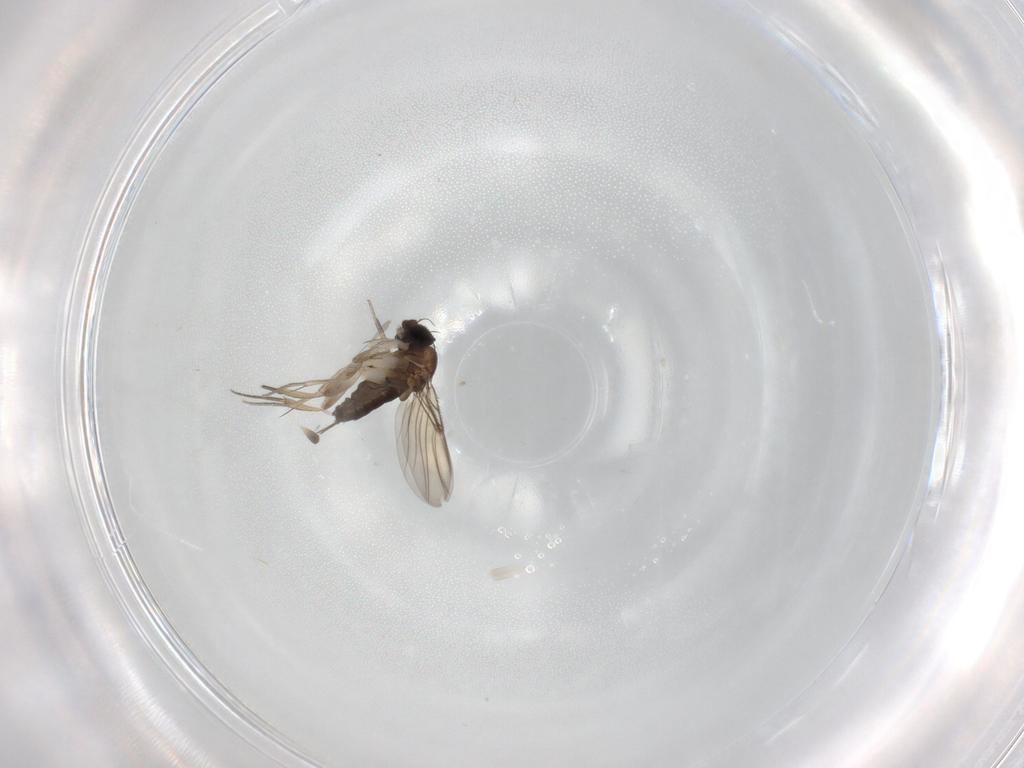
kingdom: Animalia
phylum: Arthropoda
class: Insecta
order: Diptera
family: Phoridae
